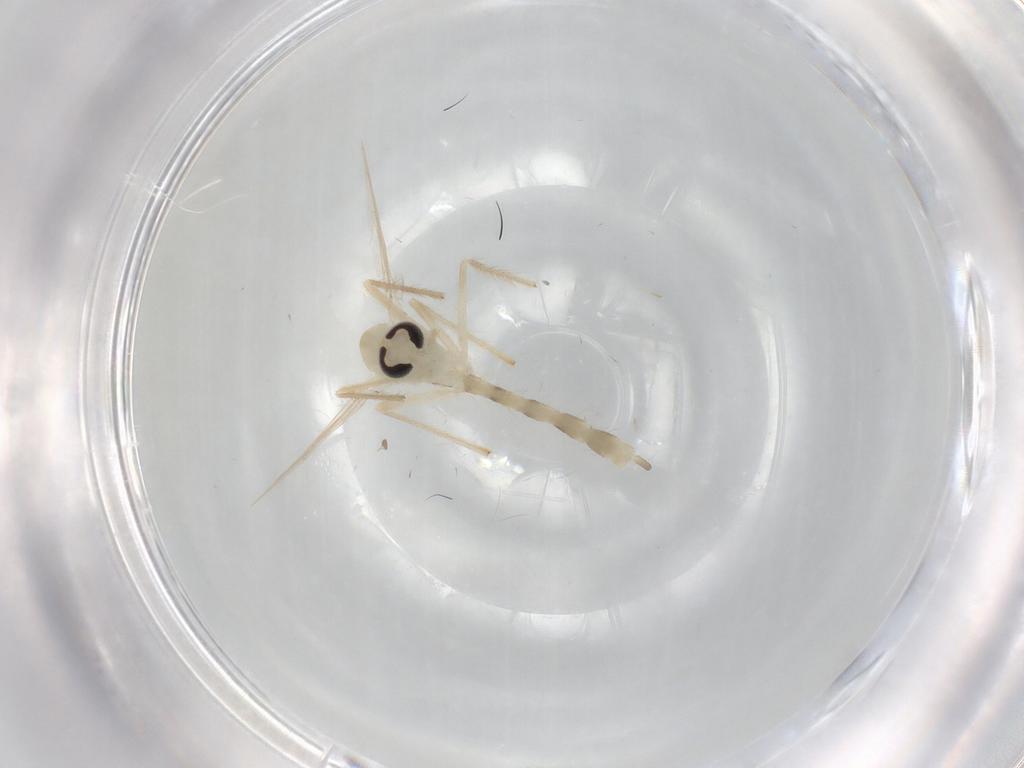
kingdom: Animalia
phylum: Arthropoda
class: Insecta
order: Diptera
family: Chironomidae
